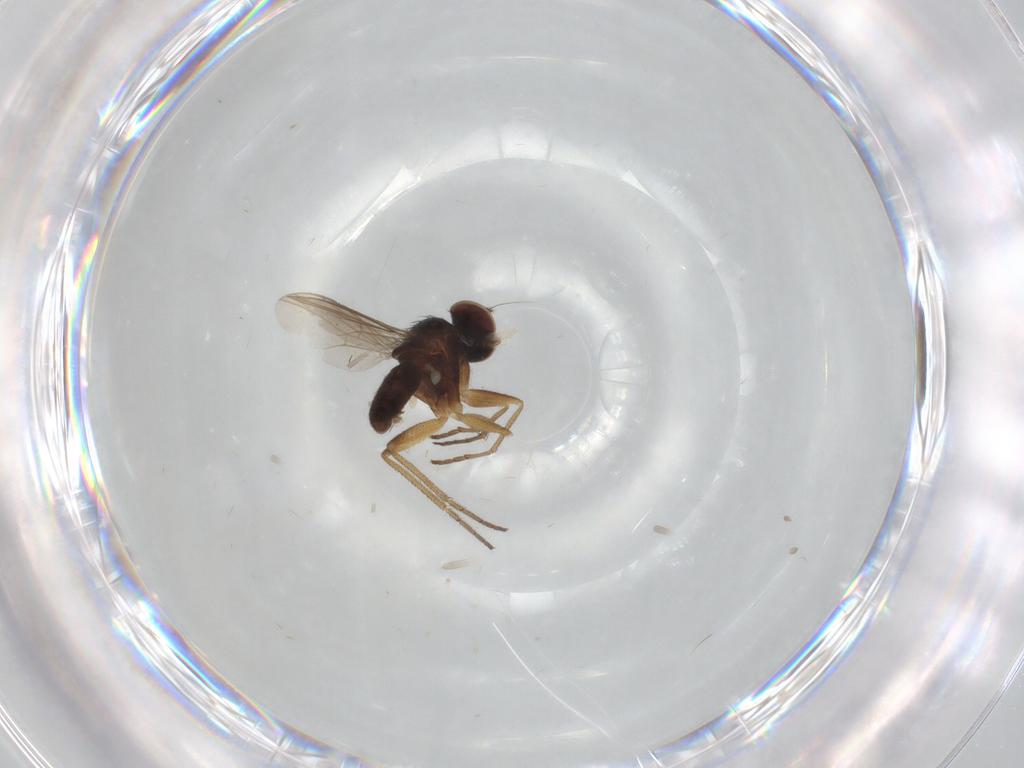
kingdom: Animalia
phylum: Arthropoda
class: Insecta
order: Diptera
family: Dolichopodidae
